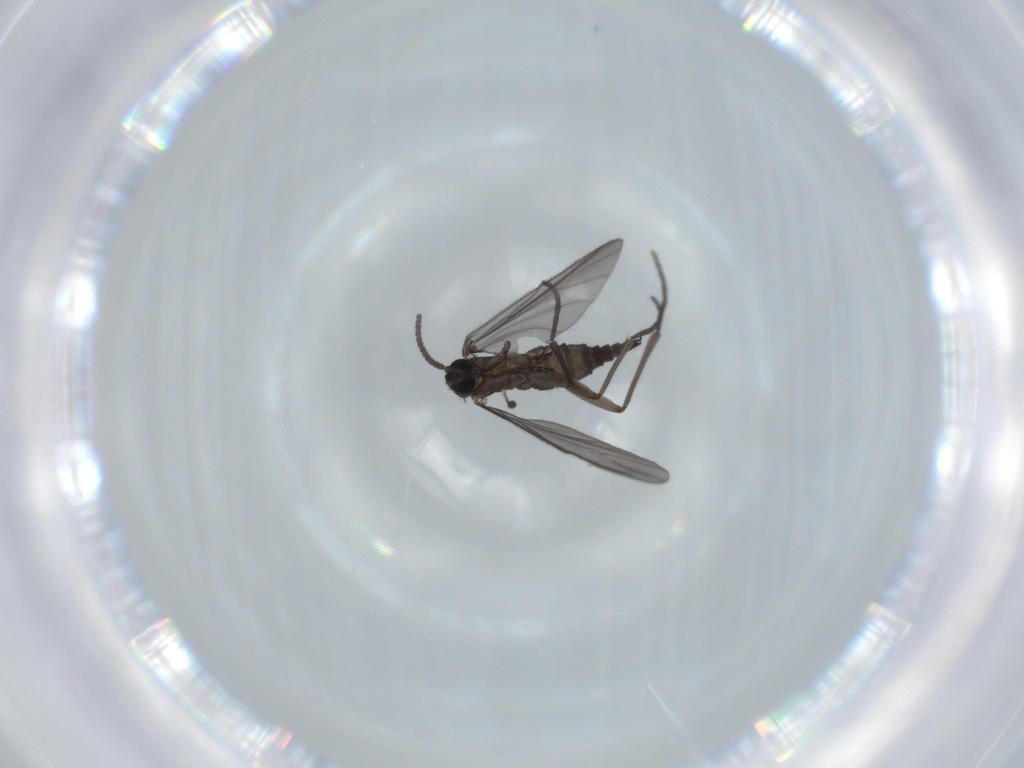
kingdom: Animalia
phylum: Arthropoda
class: Insecta
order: Diptera
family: Sciaridae
